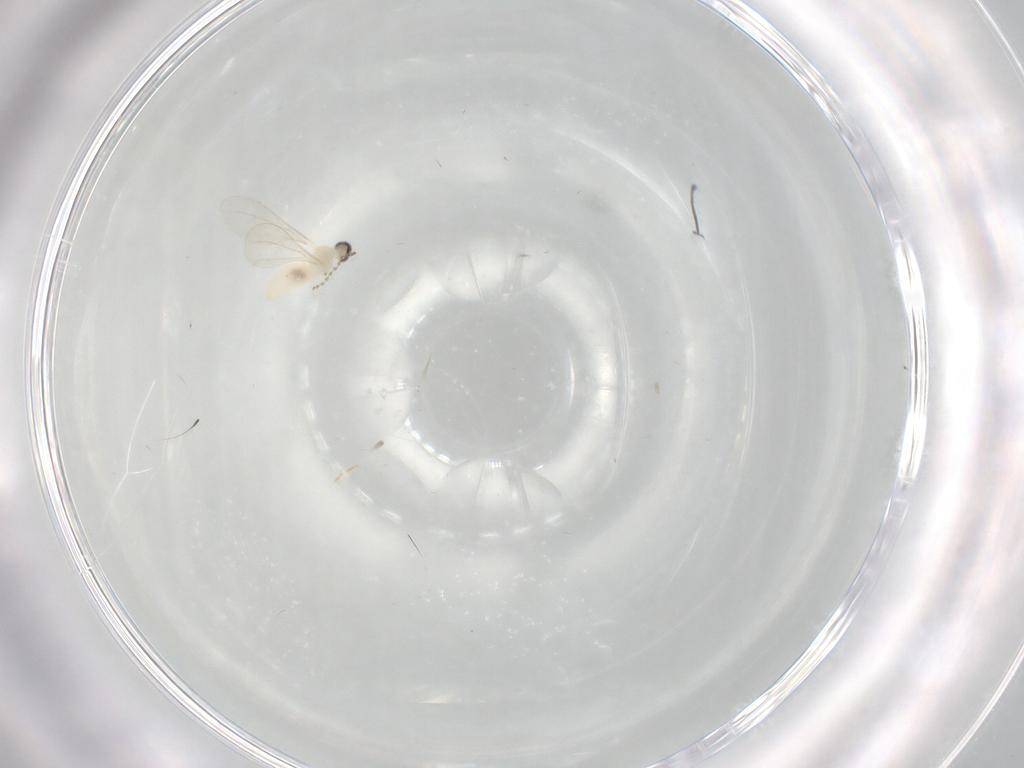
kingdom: Animalia
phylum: Arthropoda
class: Insecta
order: Diptera
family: Cecidomyiidae
